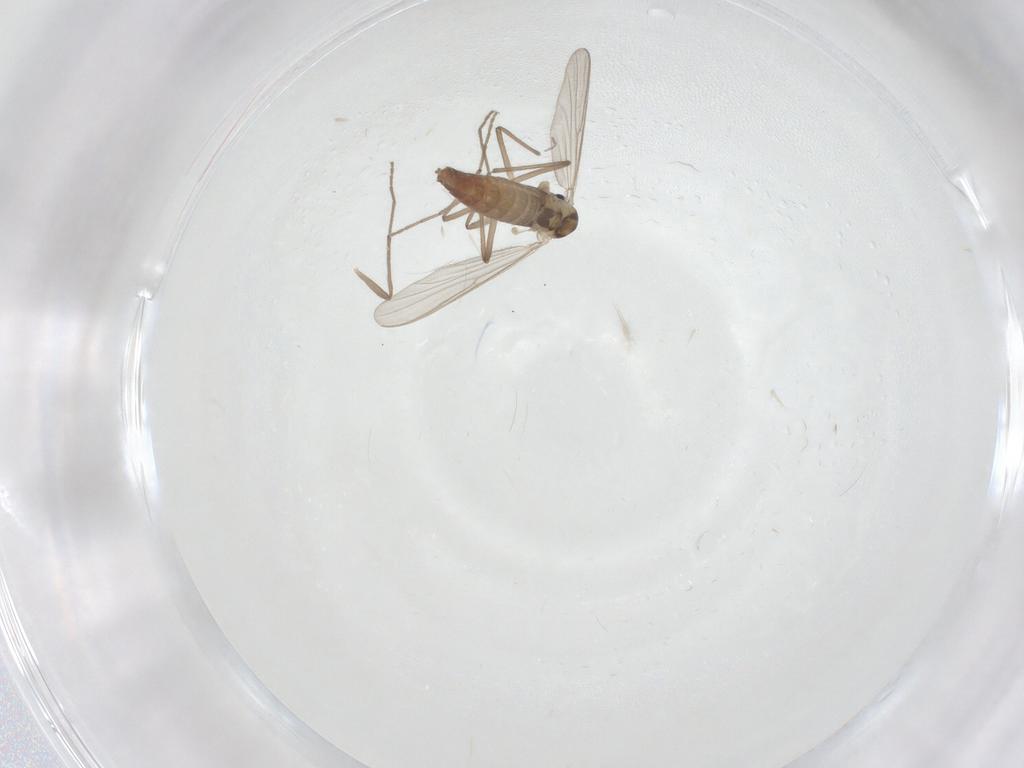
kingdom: Animalia
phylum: Arthropoda
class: Insecta
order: Diptera
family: Chironomidae
